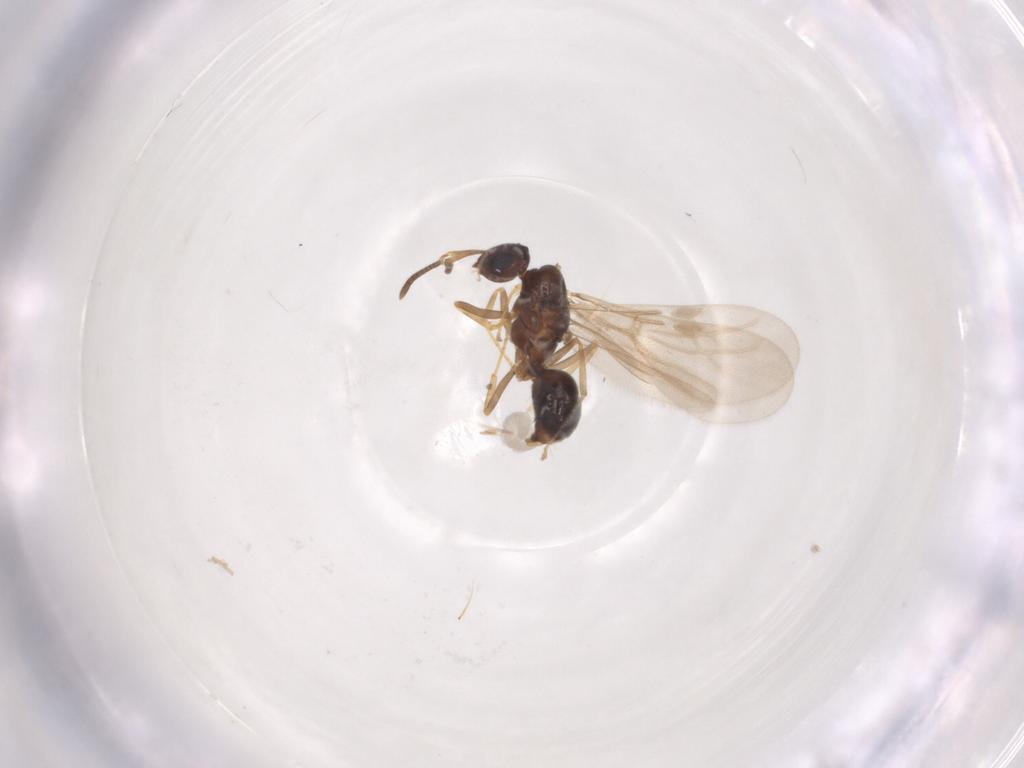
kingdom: Animalia
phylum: Arthropoda
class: Insecta
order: Hymenoptera
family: Formicidae
